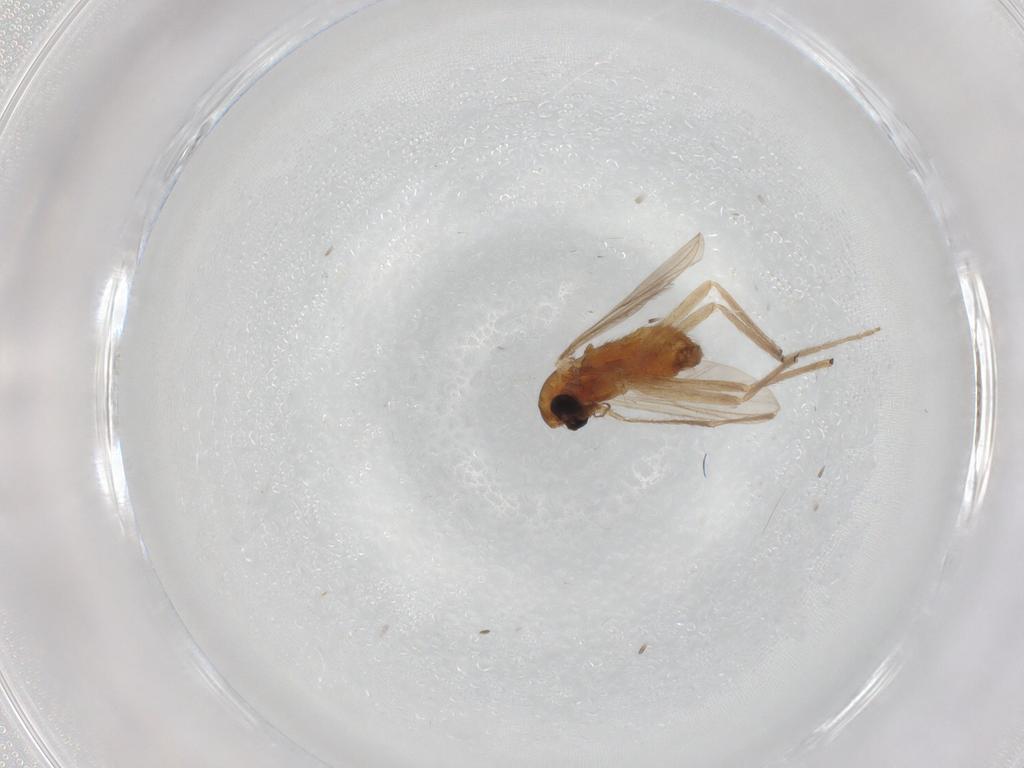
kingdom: Animalia
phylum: Arthropoda
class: Insecta
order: Diptera
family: Chironomidae
